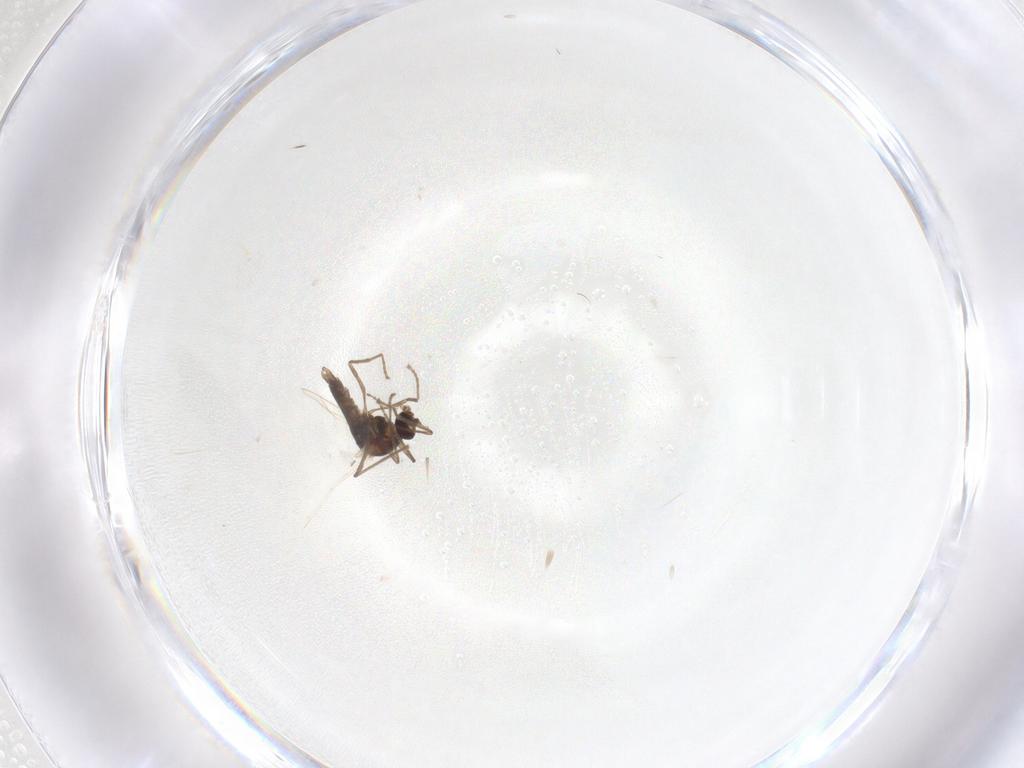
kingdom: Animalia
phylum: Arthropoda
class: Insecta
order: Diptera
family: Cecidomyiidae
